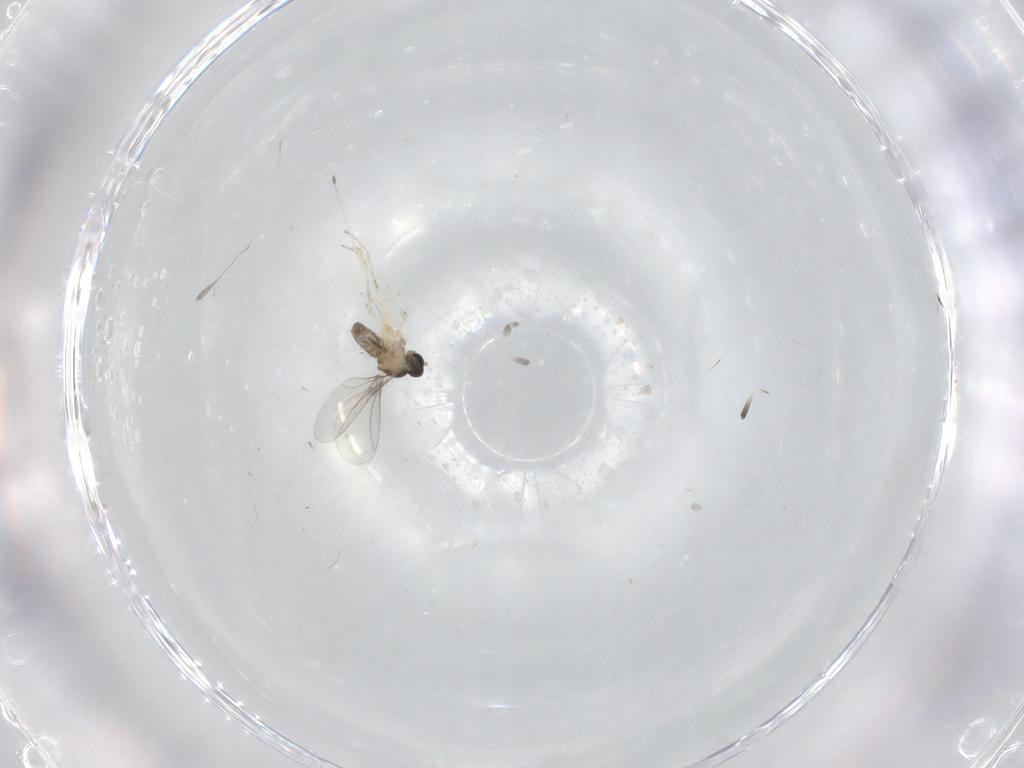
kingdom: Animalia
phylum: Arthropoda
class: Insecta
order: Diptera
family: Cecidomyiidae
